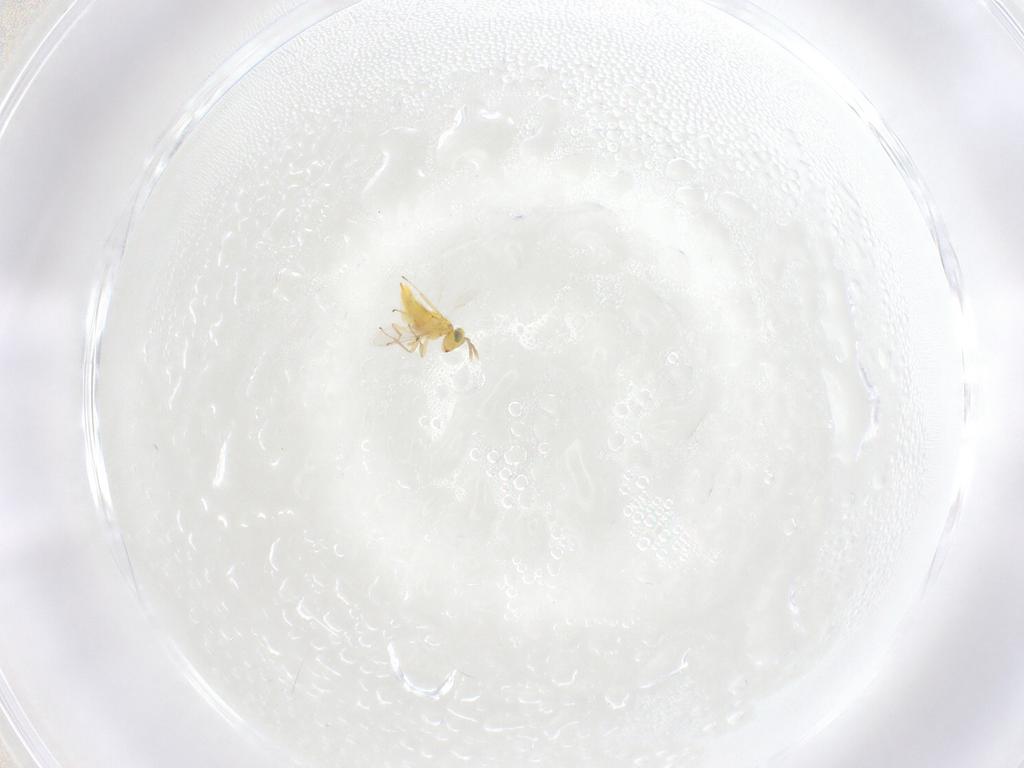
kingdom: Animalia
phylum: Arthropoda
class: Insecta
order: Hymenoptera
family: Aphelinidae
